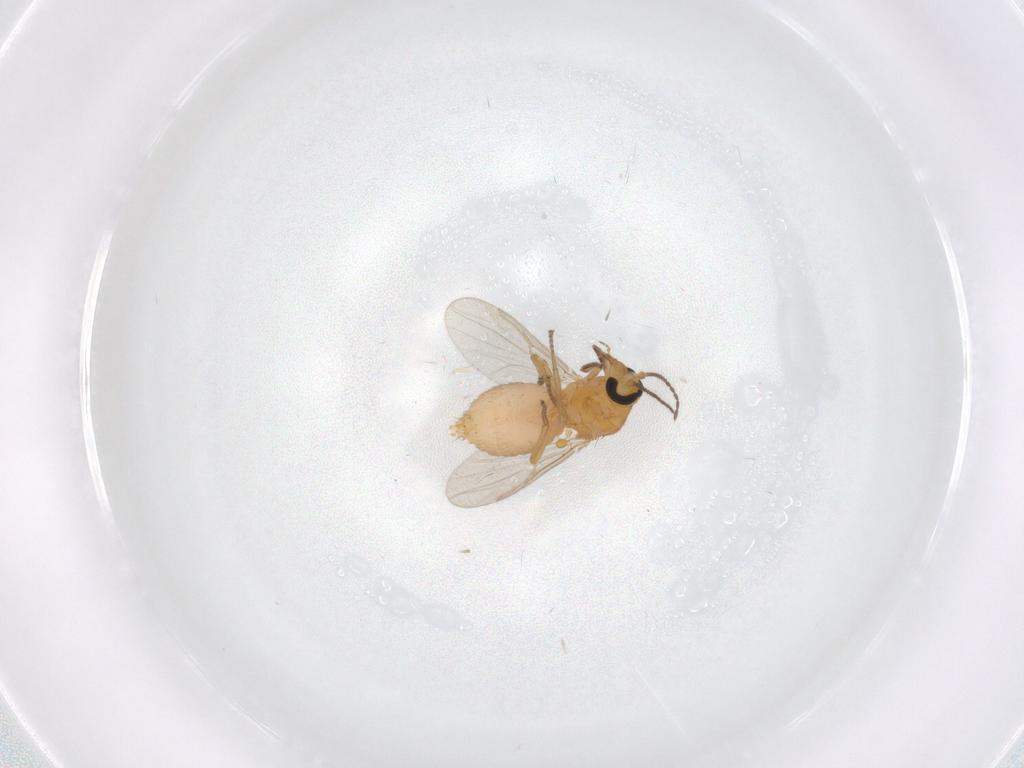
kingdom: Animalia
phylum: Arthropoda
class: Insecta
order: Diptera
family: Ceratopogonidae
